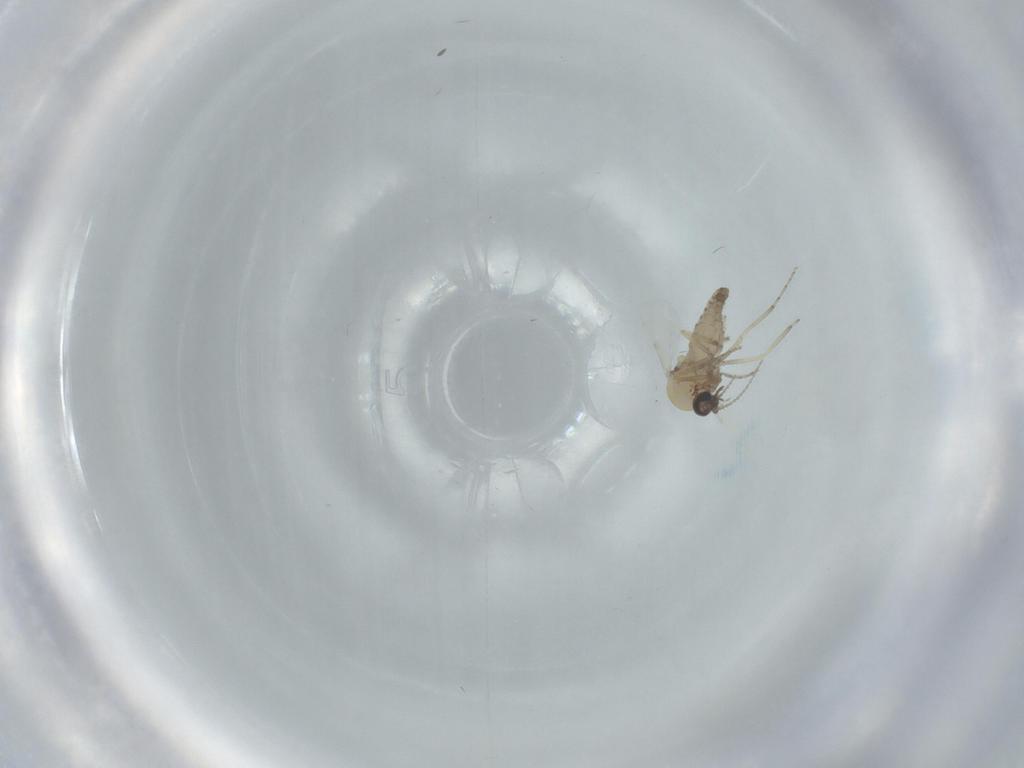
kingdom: Animalia
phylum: Arthropoda
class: Insecta
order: Diptera
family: Ceratopogonidae
